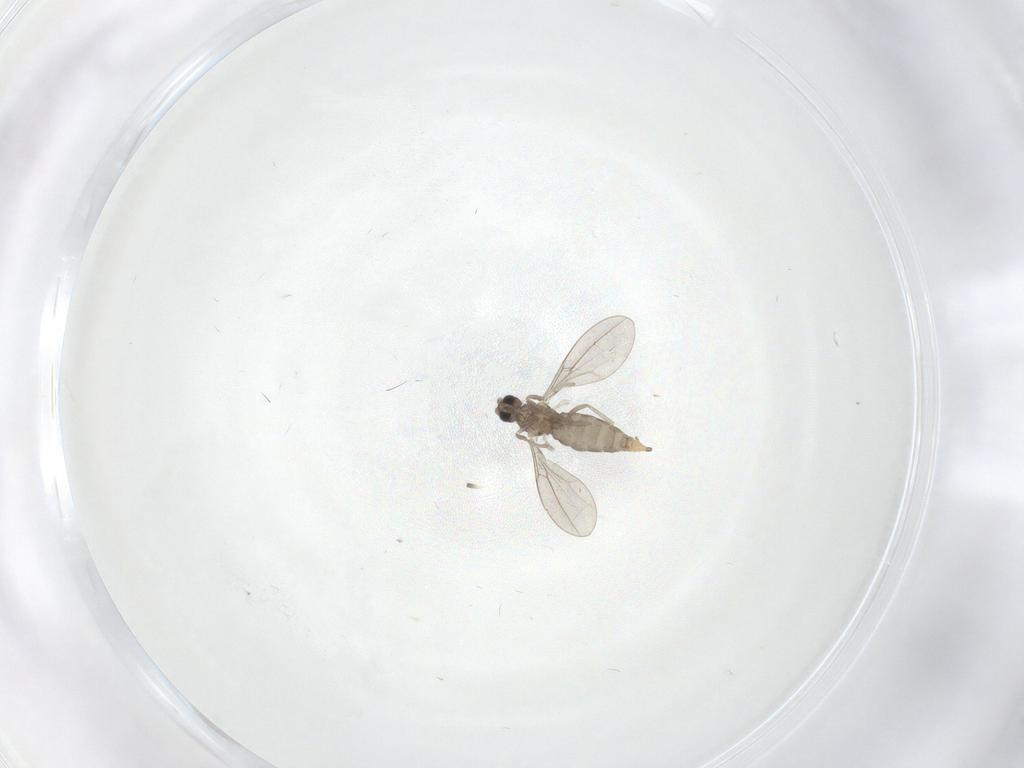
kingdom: Animalia
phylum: Arthropoda
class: Insecta
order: Diptera
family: Cecidomyiidae
